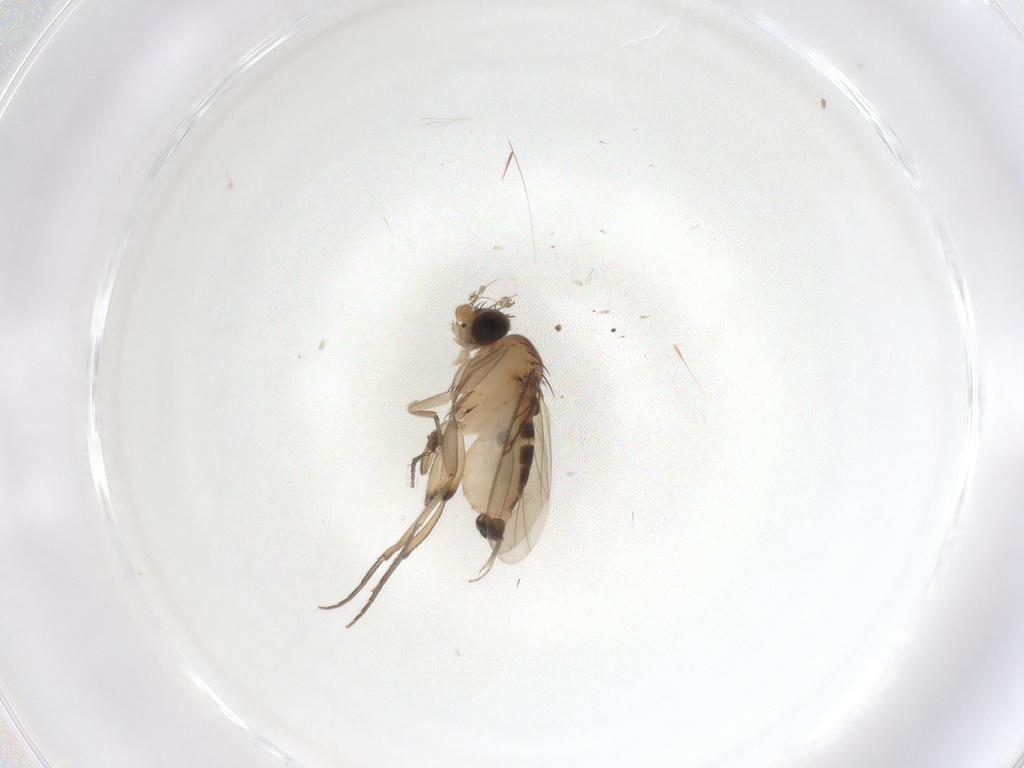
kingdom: Animalia
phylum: Arthropoda
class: Insecta
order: Diptera
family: Phoridae
